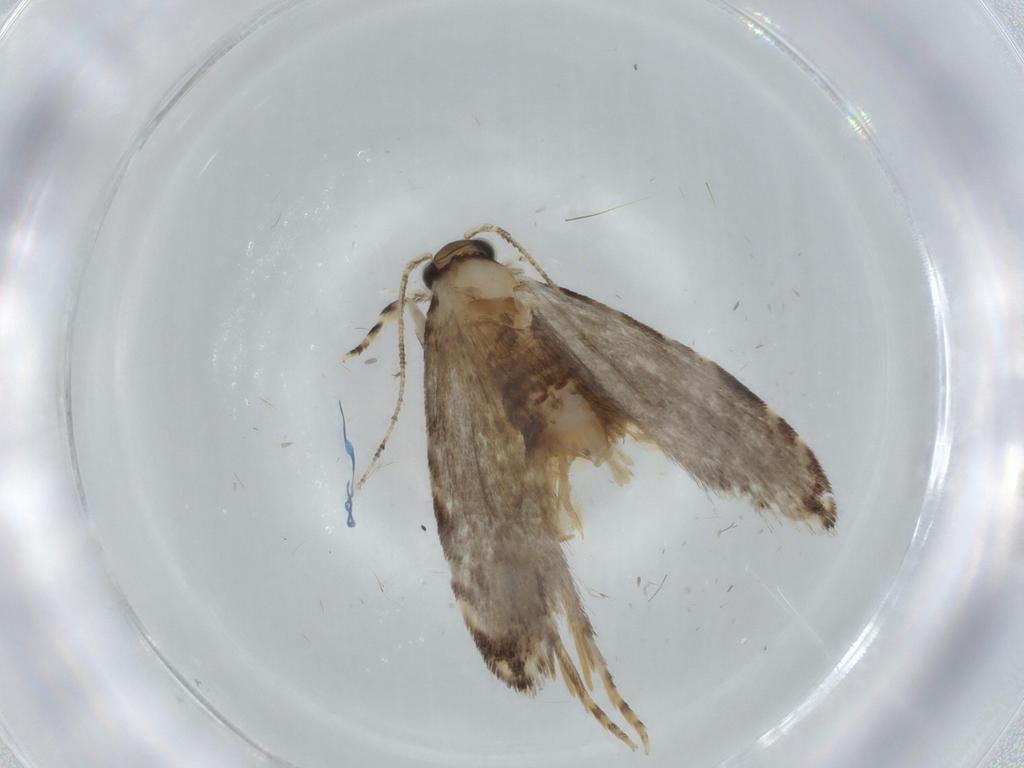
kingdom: Animalia
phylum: Arthropoda
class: Insecta
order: Lepidoptera
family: Tineidae
